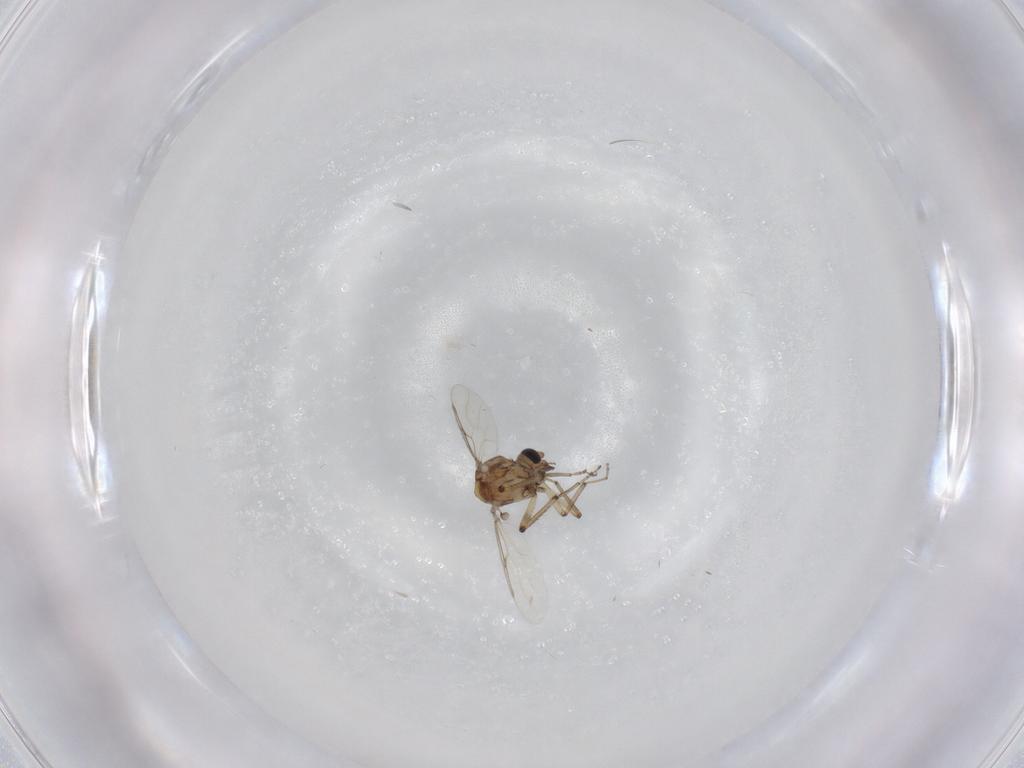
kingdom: Animalia
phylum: Arthropoda
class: Insecta
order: Diptera
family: Ceratopogonidae
